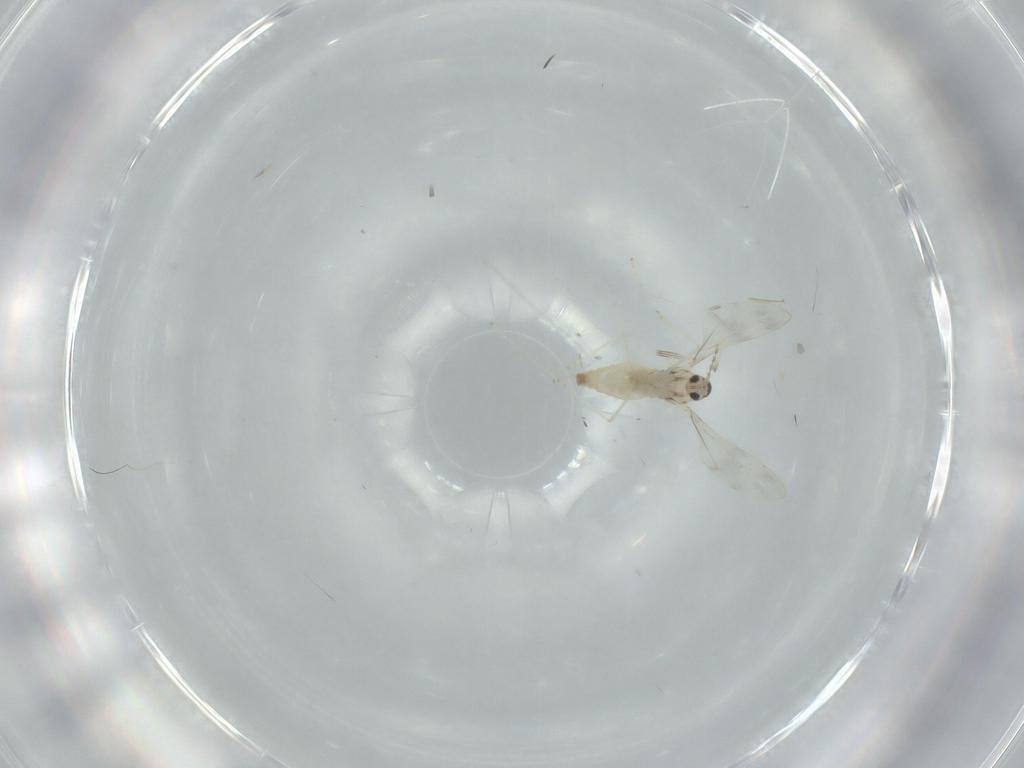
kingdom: Animalia
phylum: Arthropoda
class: Insecta
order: Diptera
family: Cecidomyiidae
